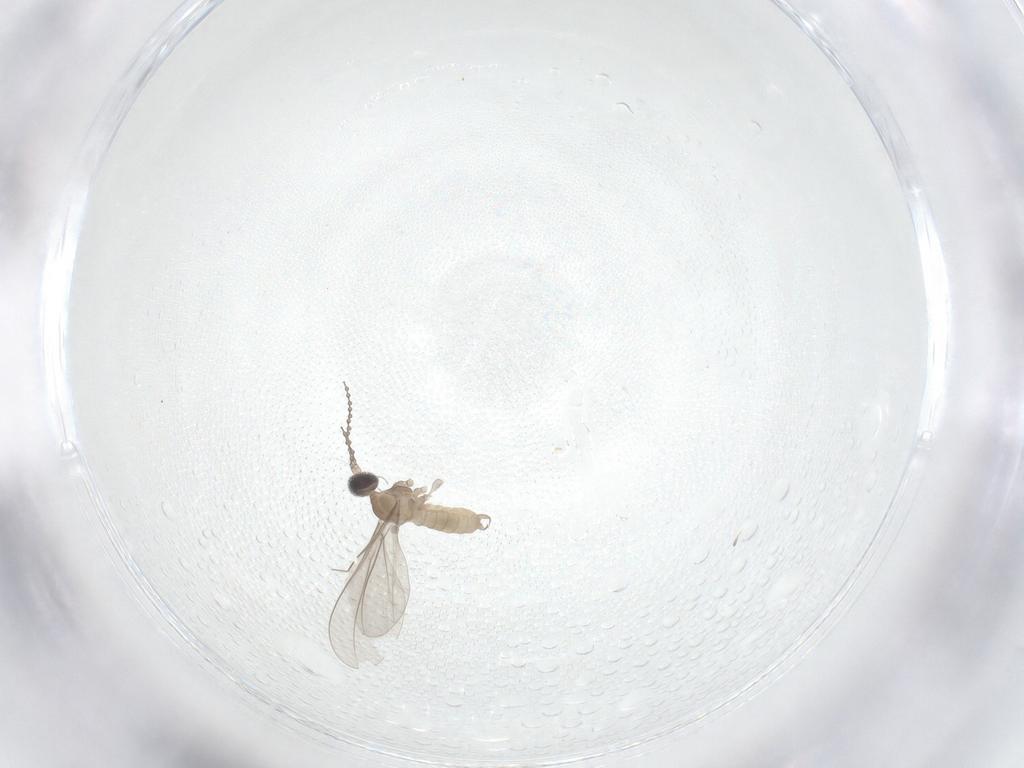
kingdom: Animalia
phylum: Arthropoda
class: Insecta
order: Diptera
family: Cecidomyiidae
